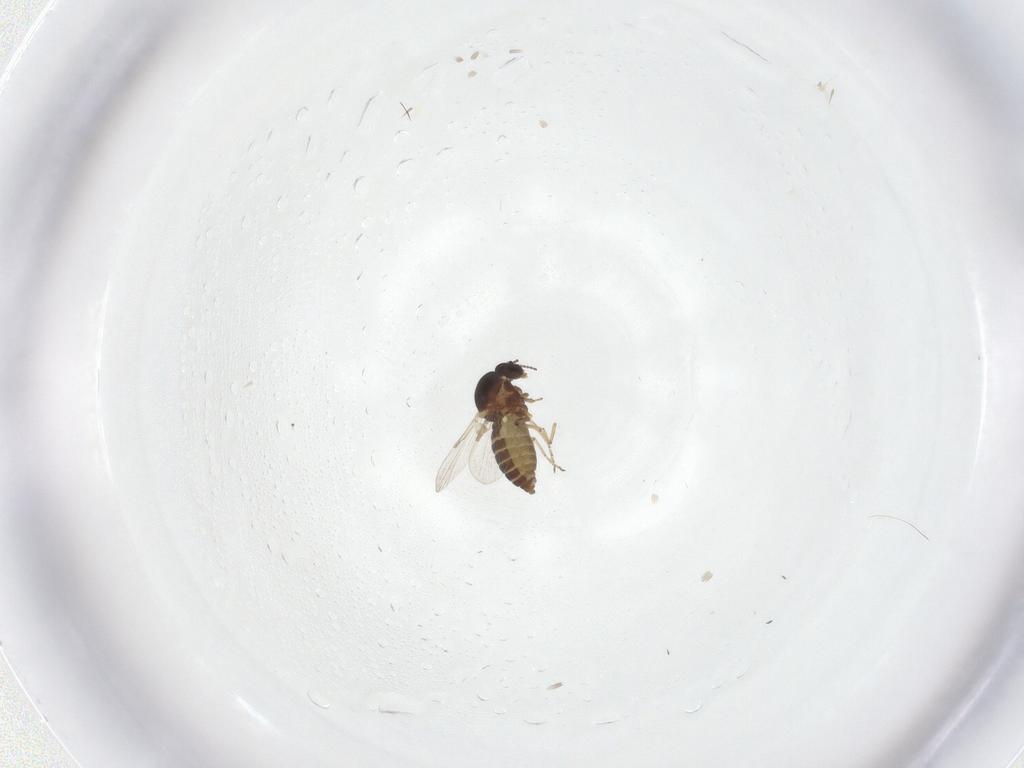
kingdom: Animalia
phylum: Arthropoda
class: Insecta
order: Diptera
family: Ceratopogonidae
